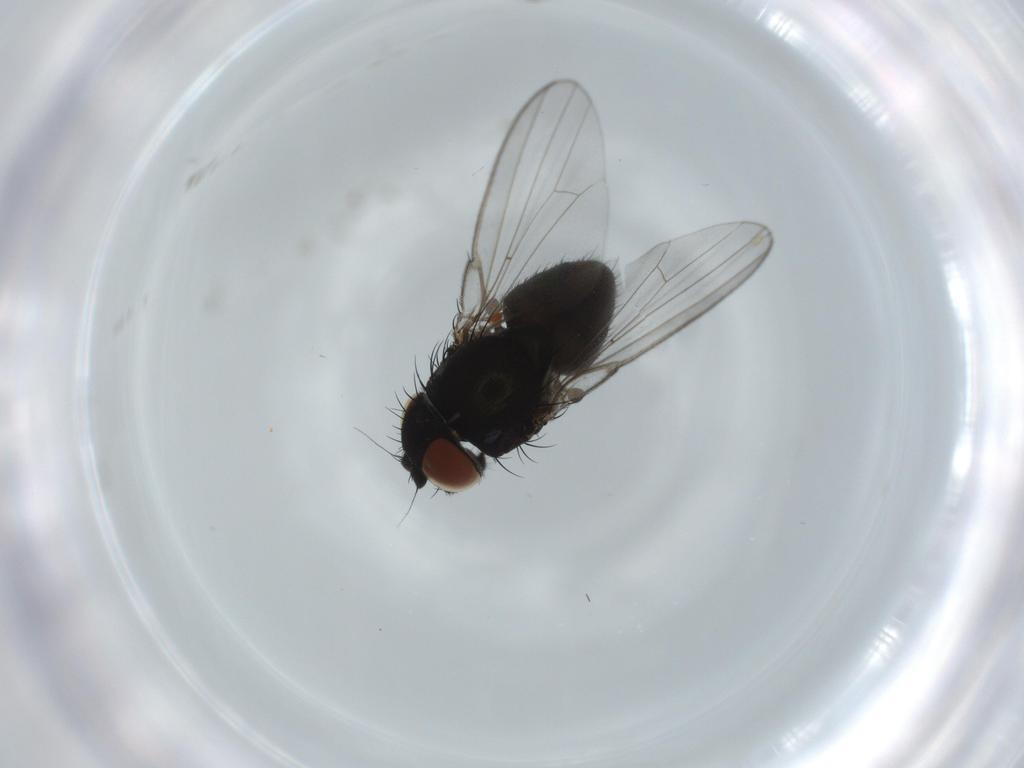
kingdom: Animalia
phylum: Arthropoda
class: Insecta
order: Diptera
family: Milichiidae
